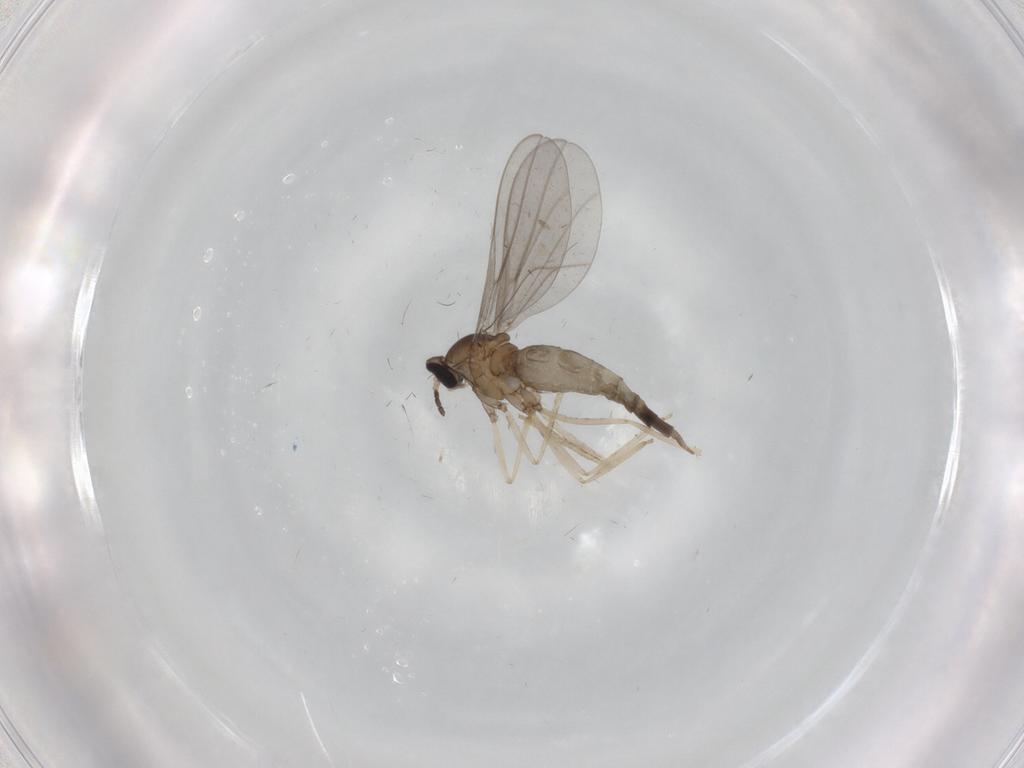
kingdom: Animalia
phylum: Arthropoda
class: Insecta
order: Diptera
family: Cecidomyiidae
